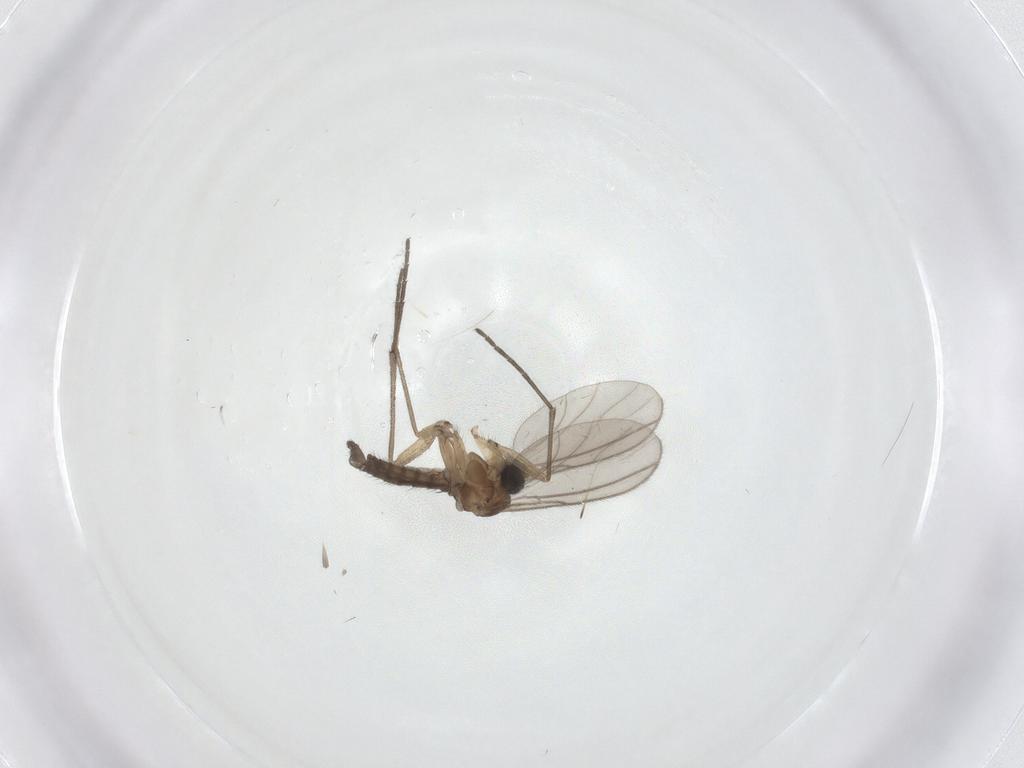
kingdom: Animalia
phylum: Arthropoda
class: Insecta
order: Diptera
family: Sciaridae
